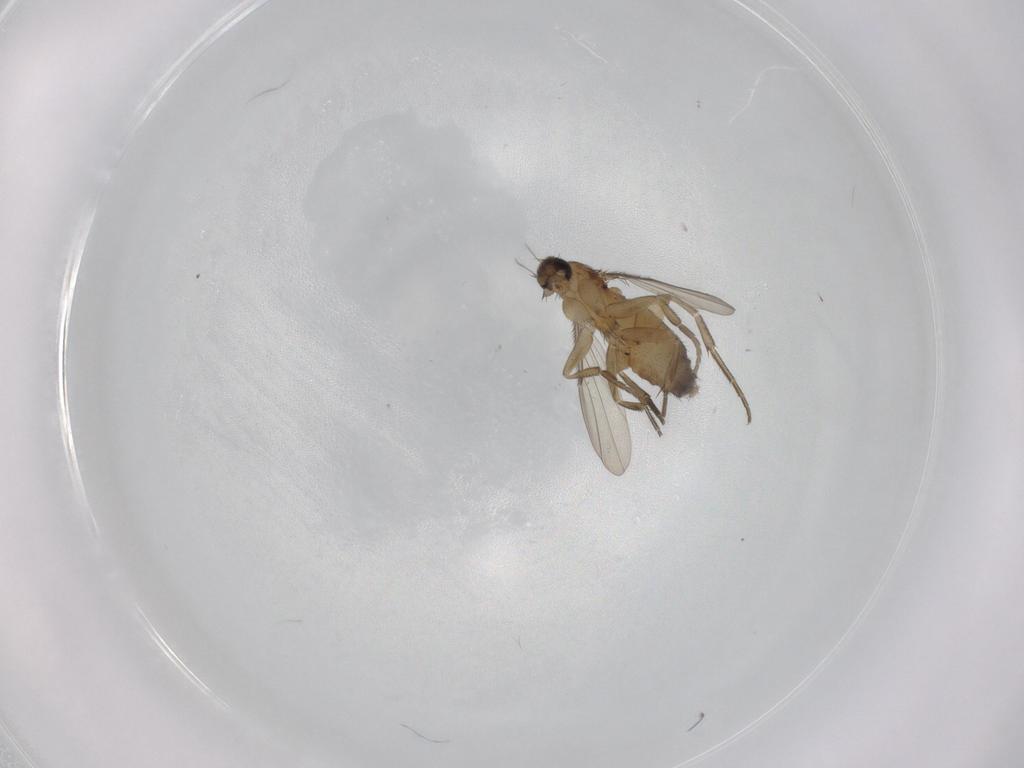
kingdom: Animalia
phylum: Arthropoda
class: Insecta
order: Diptera
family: Phoridae
